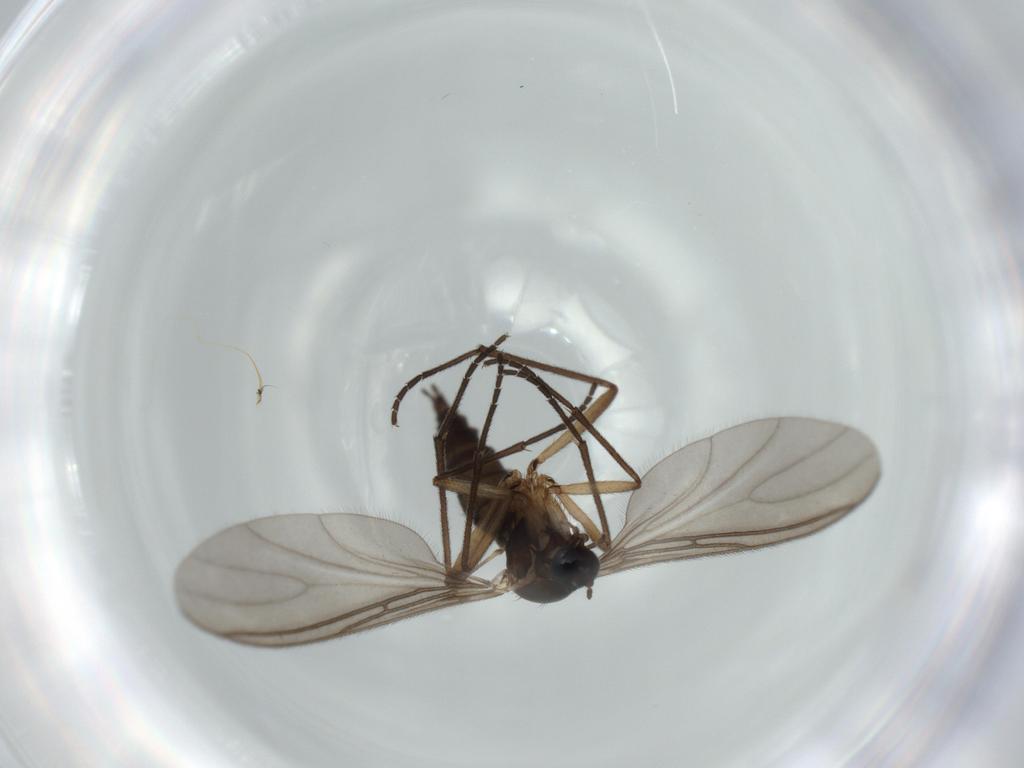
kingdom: Animalia
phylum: Arthropoda
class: Insecta
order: Diptera
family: Sciaridae
